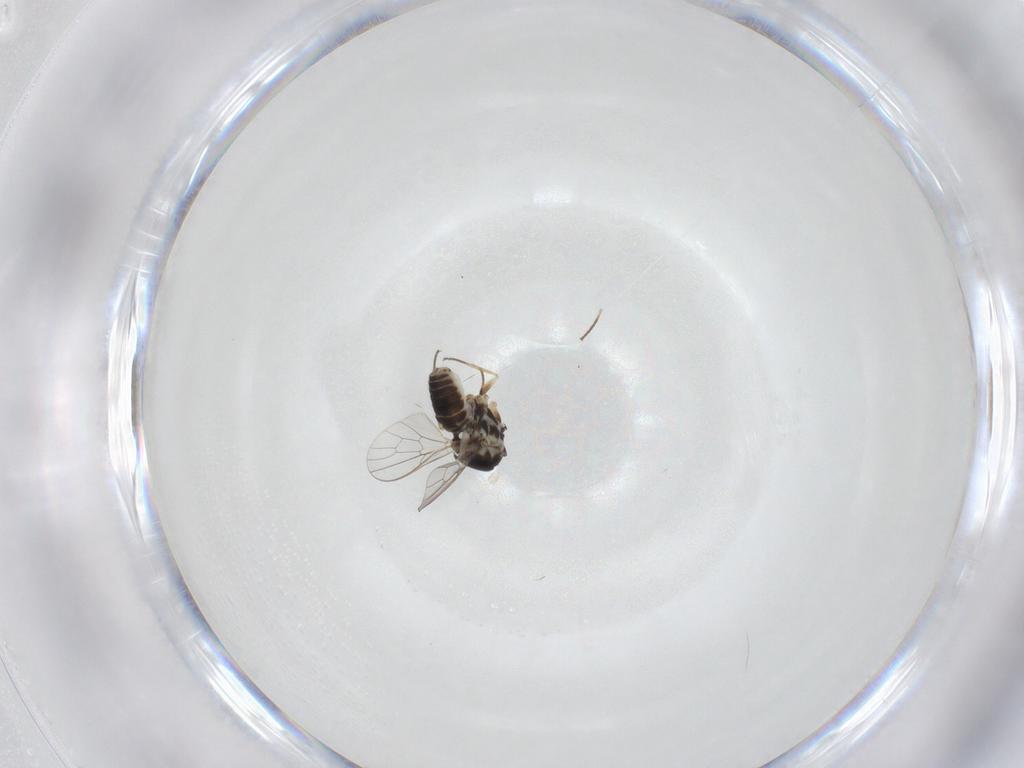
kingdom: Animalia
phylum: Arthropoda
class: Insecta
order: Diptera
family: Mythicomyiidae
